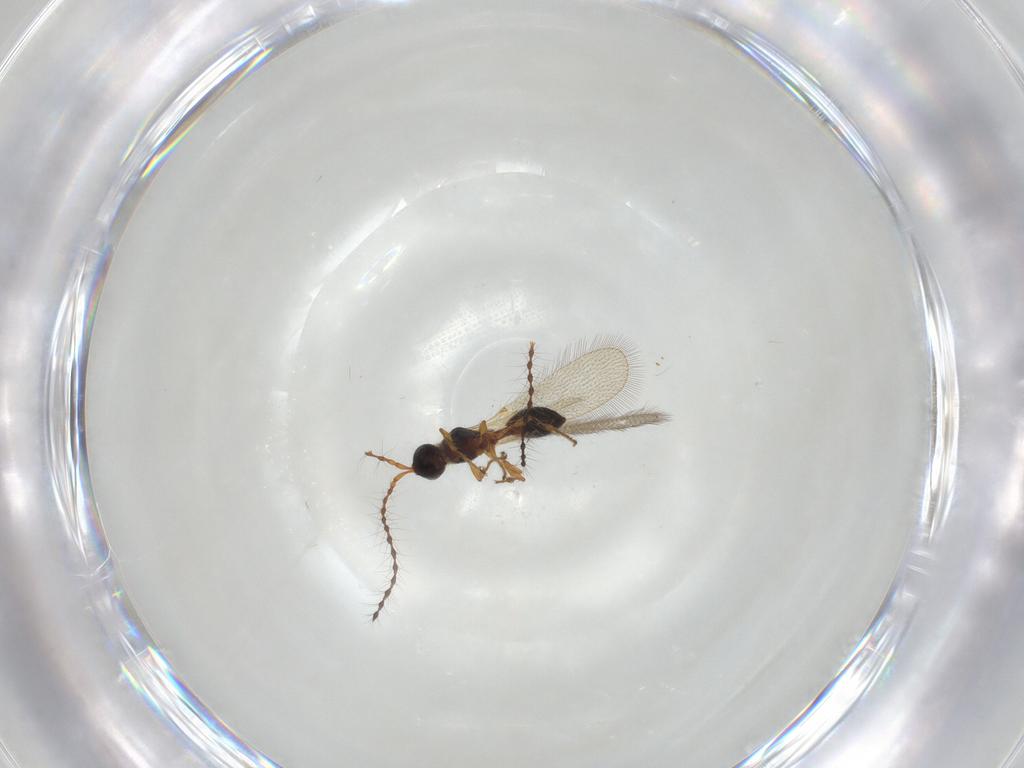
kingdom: Animalia
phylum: Arthropoda
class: Insecta
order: Hymenoptera
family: Diapriidae
